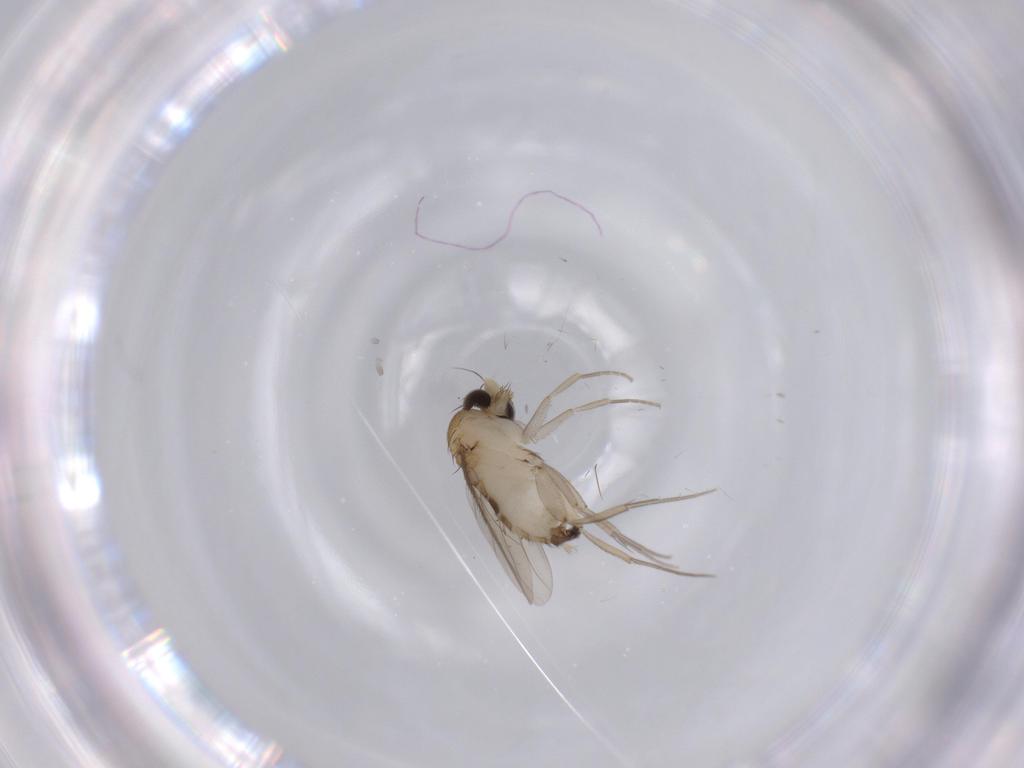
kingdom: Animalia
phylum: Arthropoda
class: Insecta
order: Diptera
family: Phoridae
